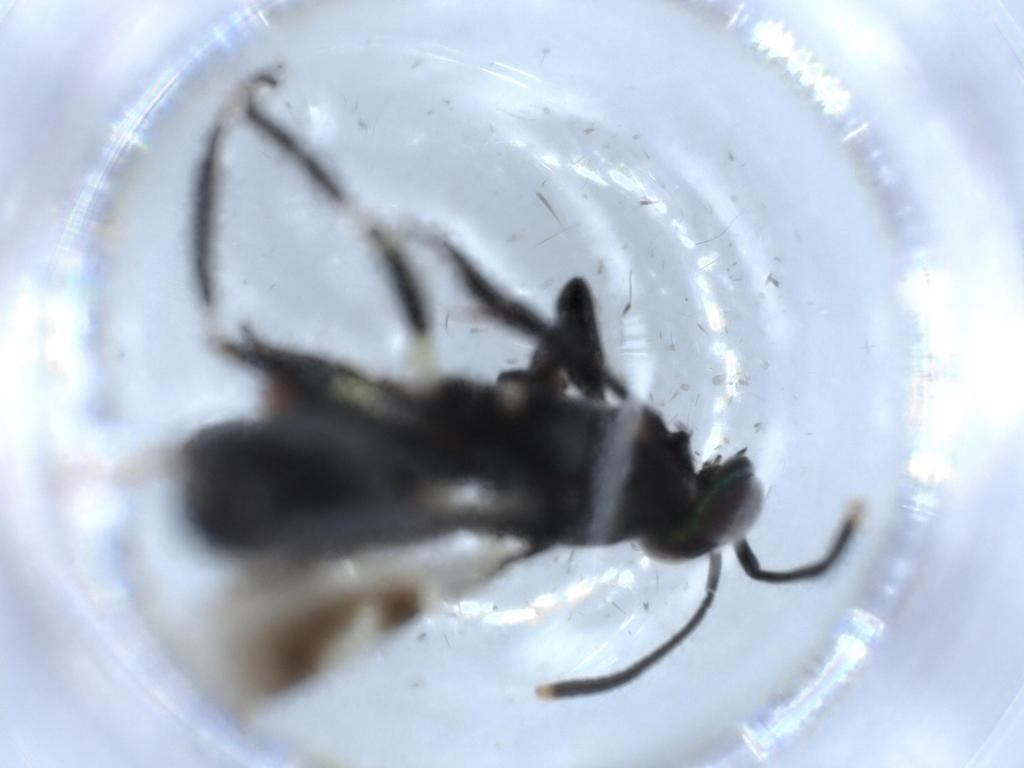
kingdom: Animalia
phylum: Arthropoda
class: Insecta
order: Hymenoptera
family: Eupelmidae
